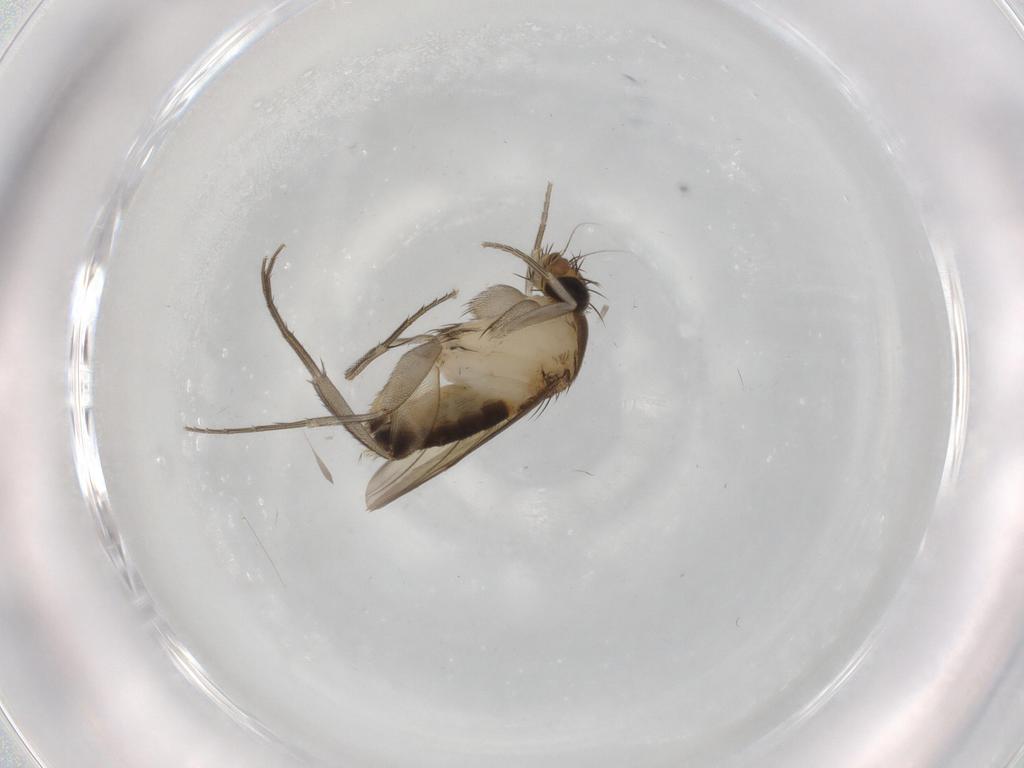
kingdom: Animalia
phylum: Arthropoda
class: Insecta
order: Diptera
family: Phoridae
